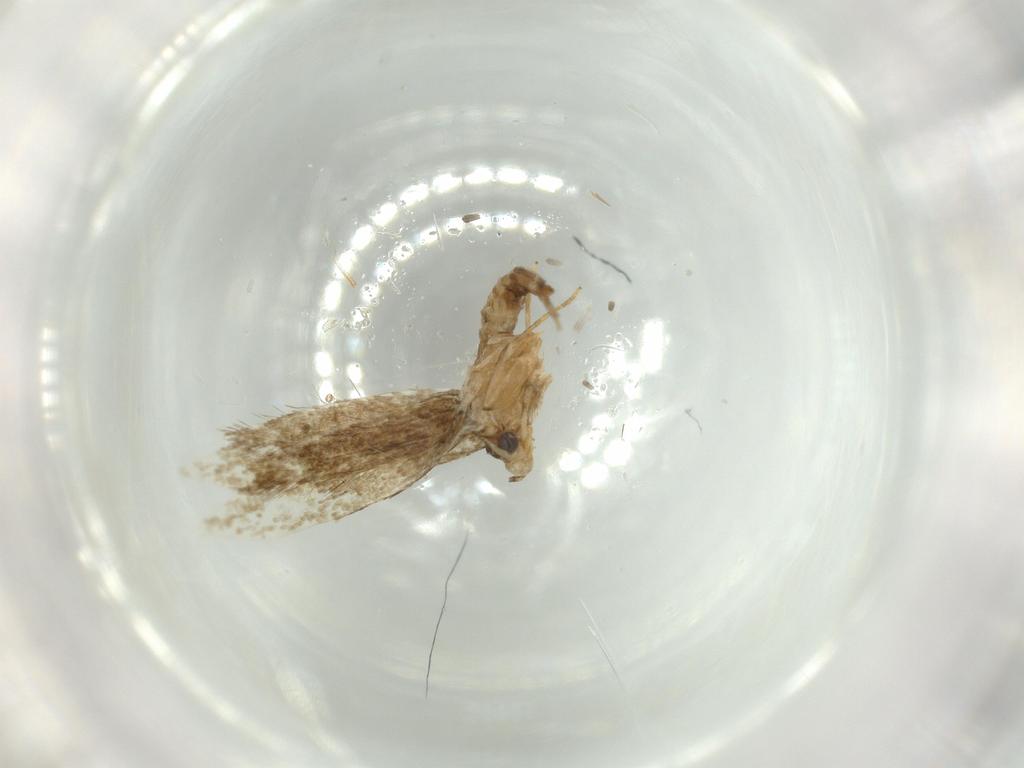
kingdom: Animalia
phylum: Arthropoda
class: Insecta
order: Lepidoptera
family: Tineidae
